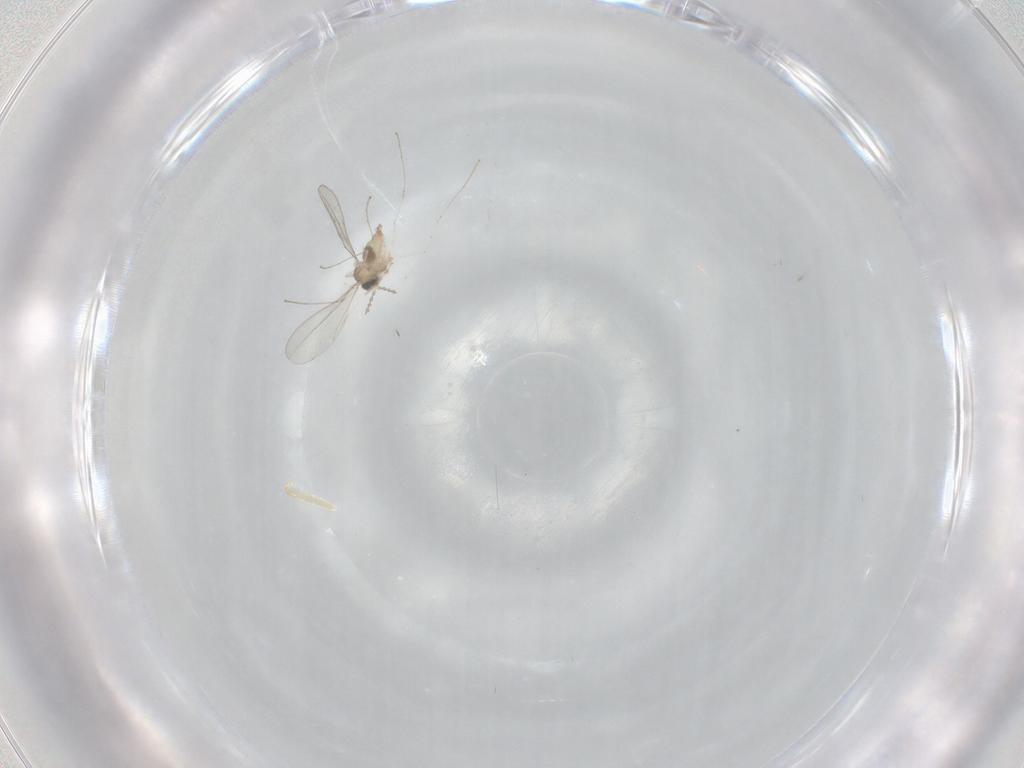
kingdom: Animalia
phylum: Arthropoda
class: Insecta
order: Diptera
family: Cecidomyiidae
